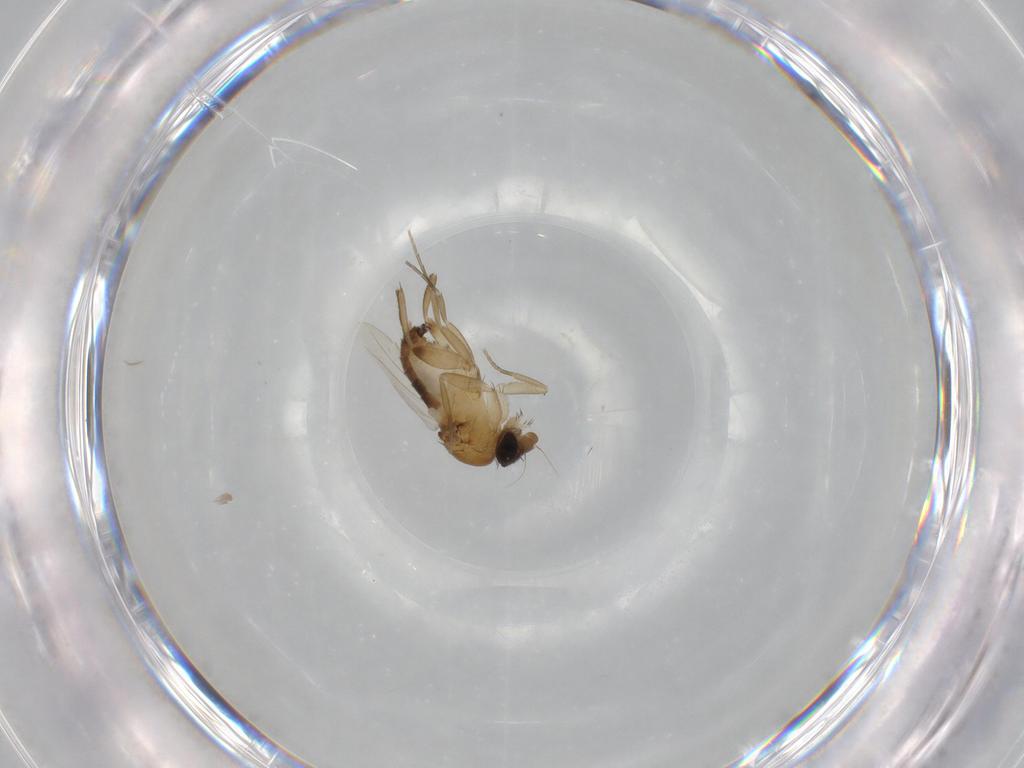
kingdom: Animalia
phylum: Arthropoda
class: Insecta
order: Diptera
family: Phoridae
